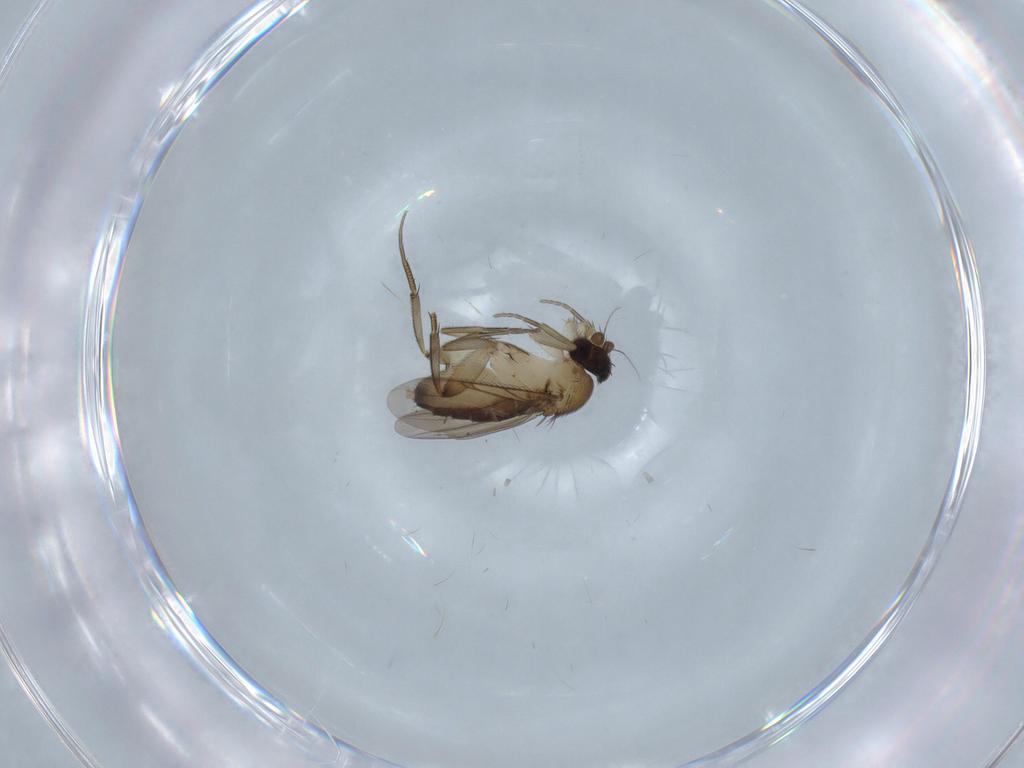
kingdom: Animalia
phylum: Arthropoda
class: Insecta
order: Diptera
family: Phoridae
